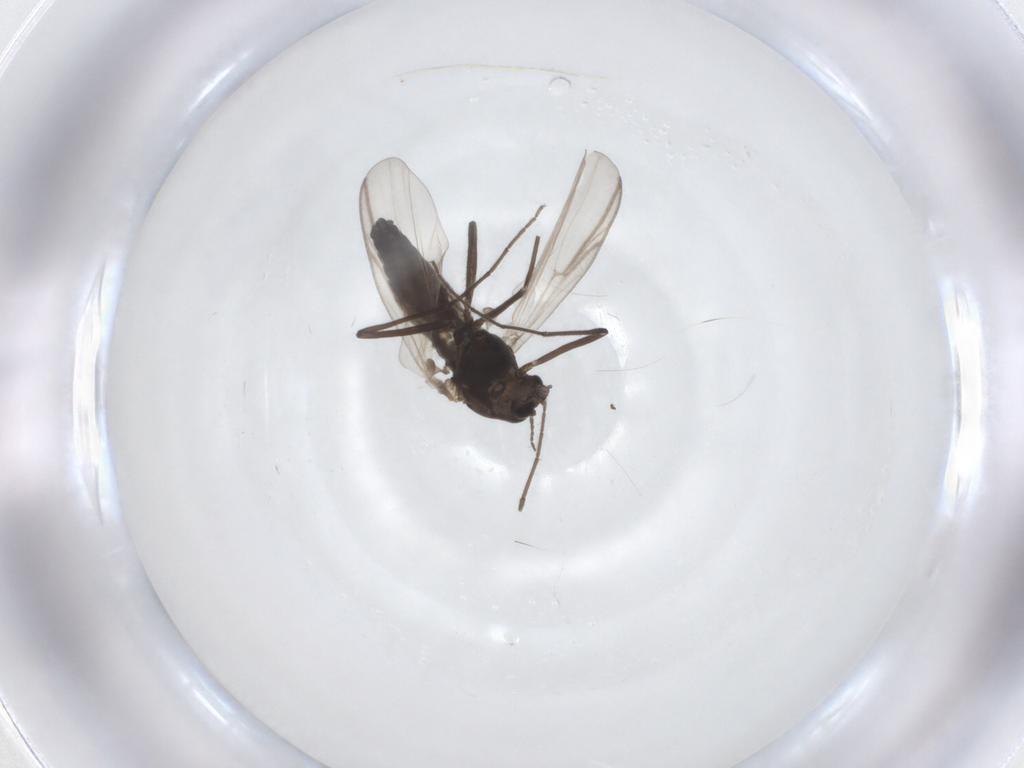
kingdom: Animalia
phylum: Arthropoda
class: Insecta
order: Diptera
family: Chironomidae
